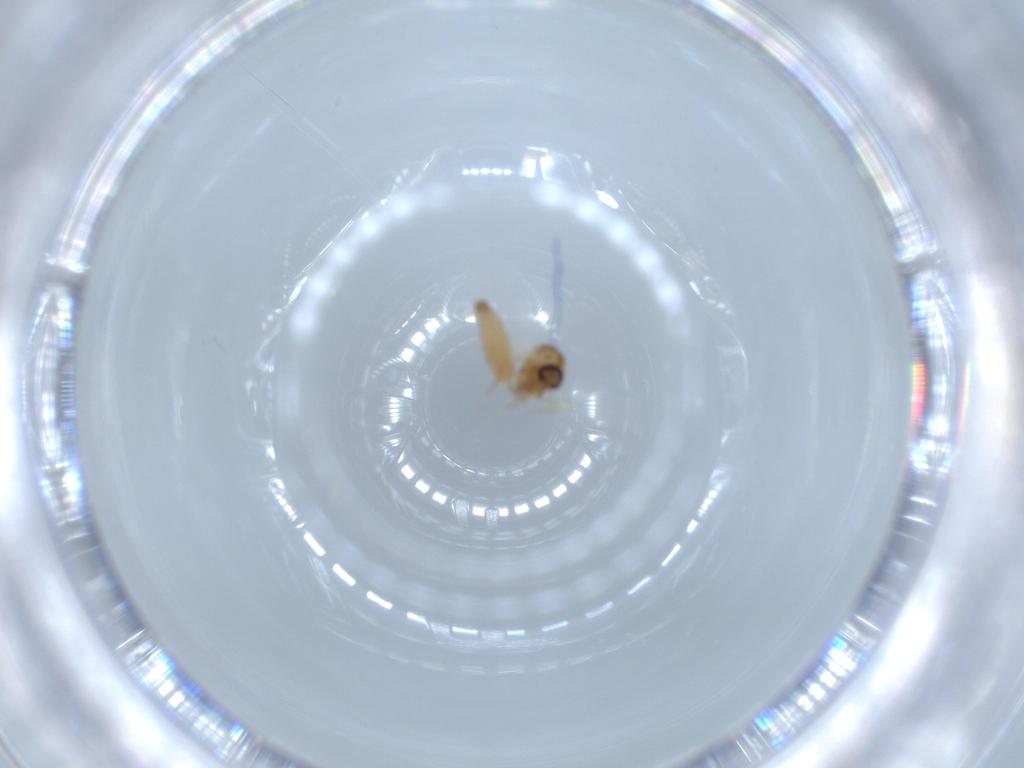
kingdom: Animalia
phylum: Arthropoda
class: Insecta
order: Diptera
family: Ceratopogonidae
